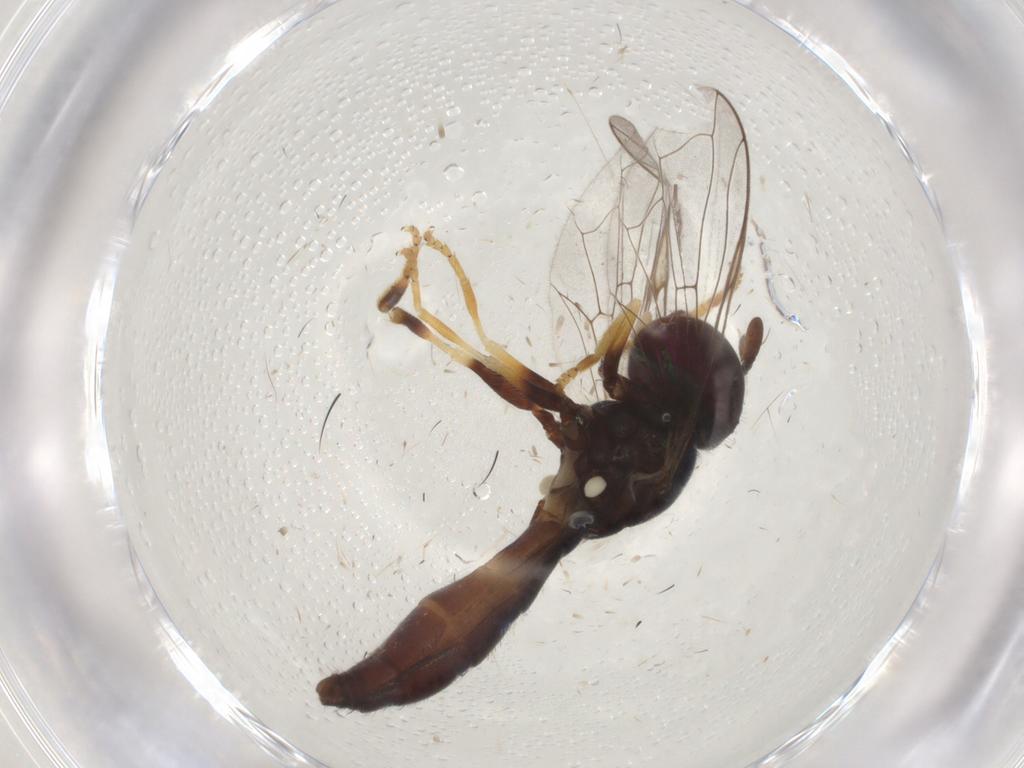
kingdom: Animalia
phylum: Arthropoda
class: Insecta
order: Diptera
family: Syrphidae
